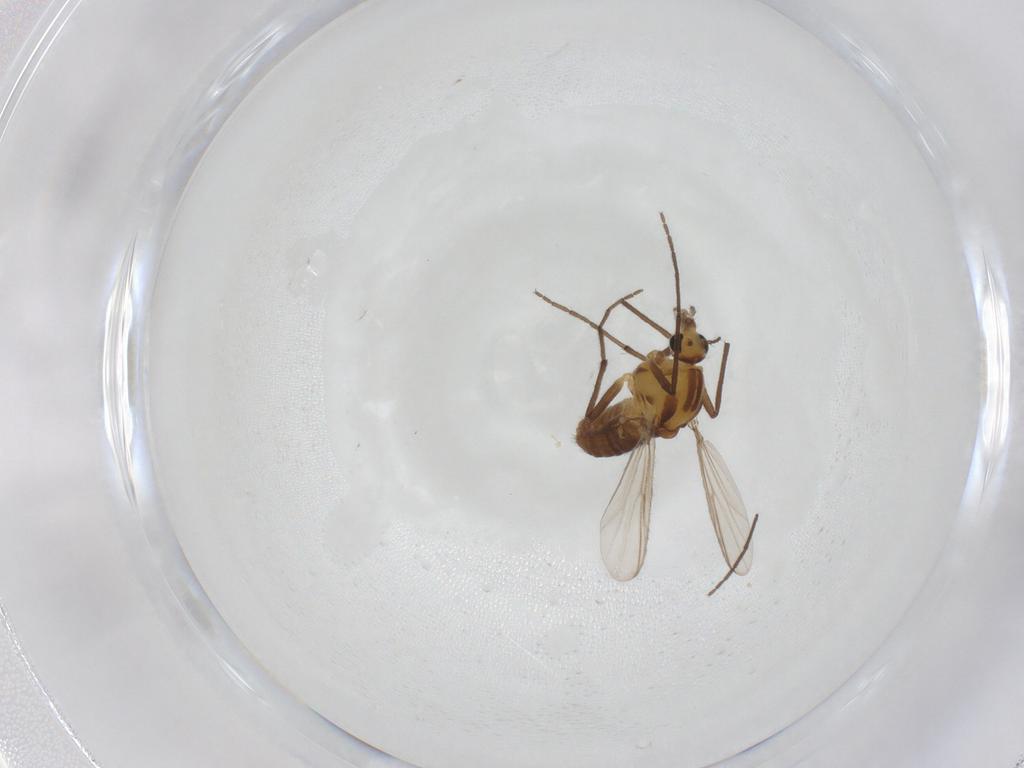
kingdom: Animalia
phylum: Arthropoda
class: Insecta
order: Diptera
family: Chironomidae
